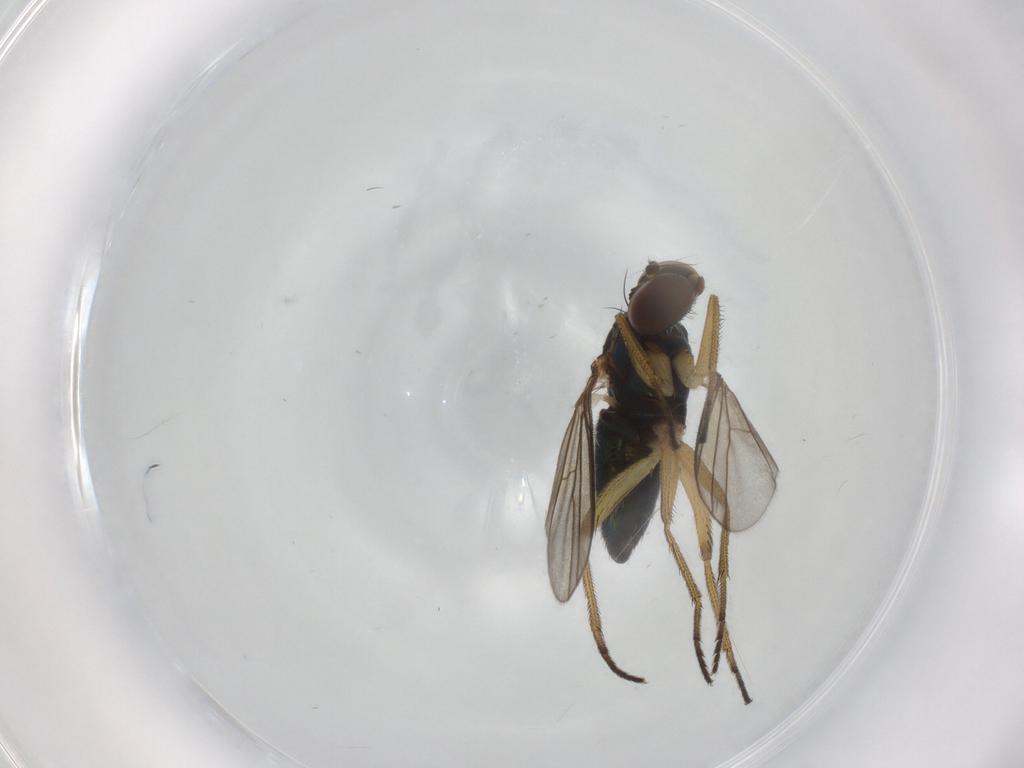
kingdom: Animalia
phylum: Arthropoda
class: Insecta
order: Diptera
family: Dolichopodidae
